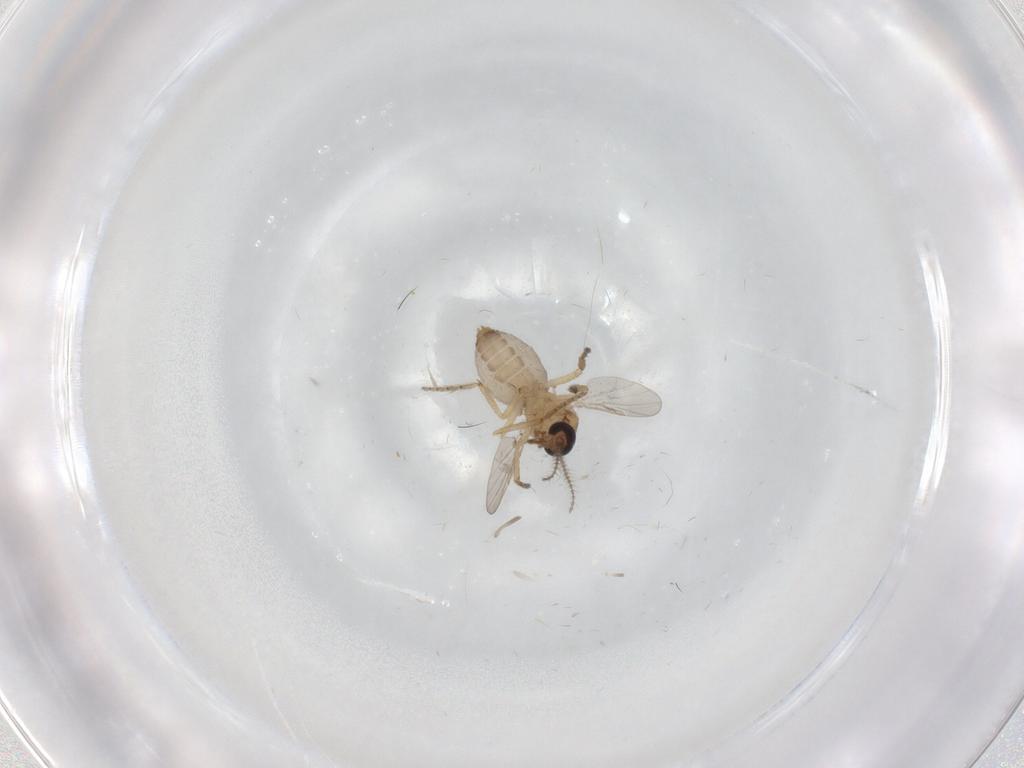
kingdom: Animalia
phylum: Arthropoda
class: Insecta
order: Diptera
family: Ceratopogonidae
